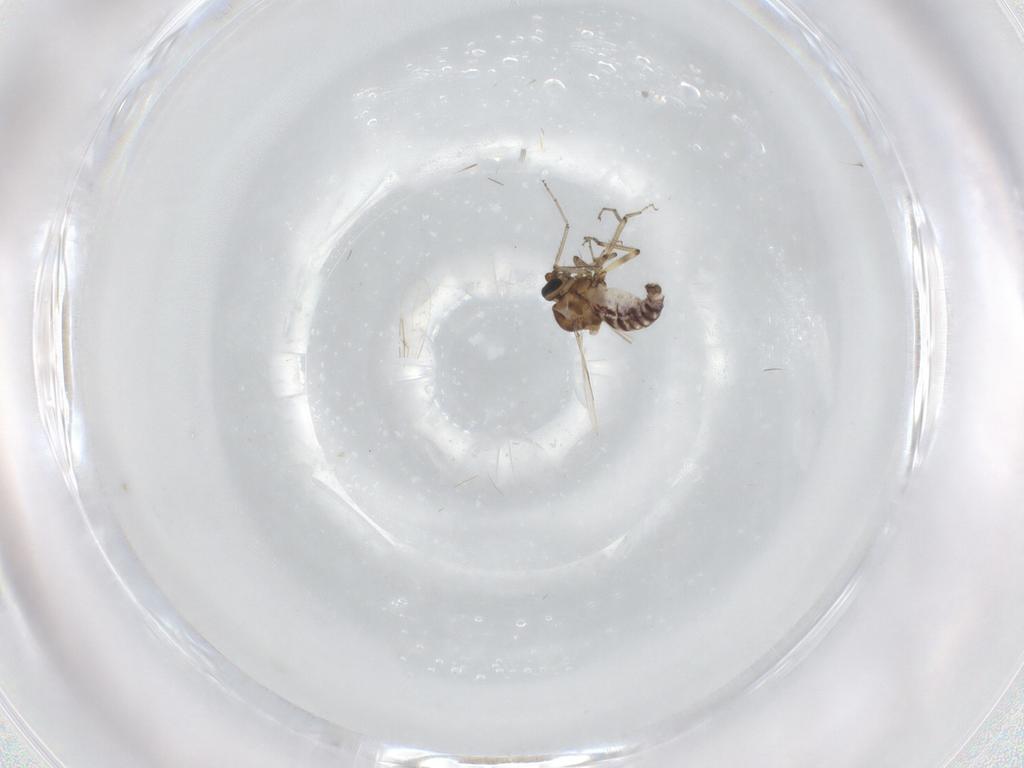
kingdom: Animalia
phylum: Arthropoda
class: Insecta
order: Diptera
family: Ceratopogonidae
